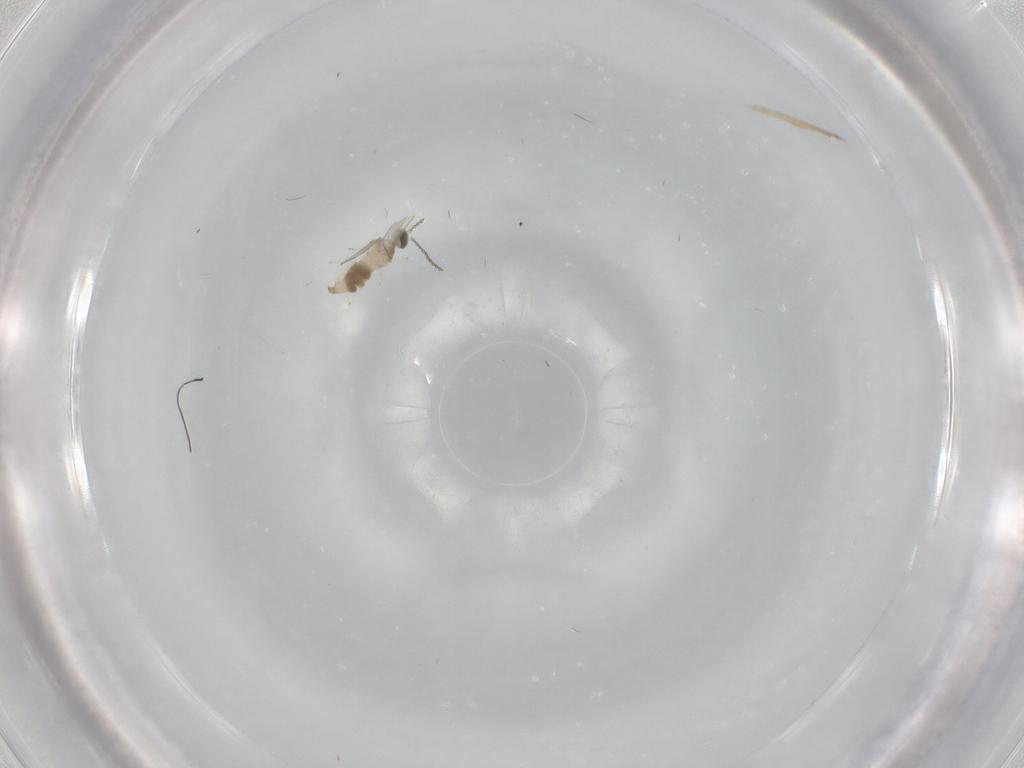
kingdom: Animalia
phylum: Arthropoda
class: Insecta
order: Diptera
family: Cecidomyiidae
